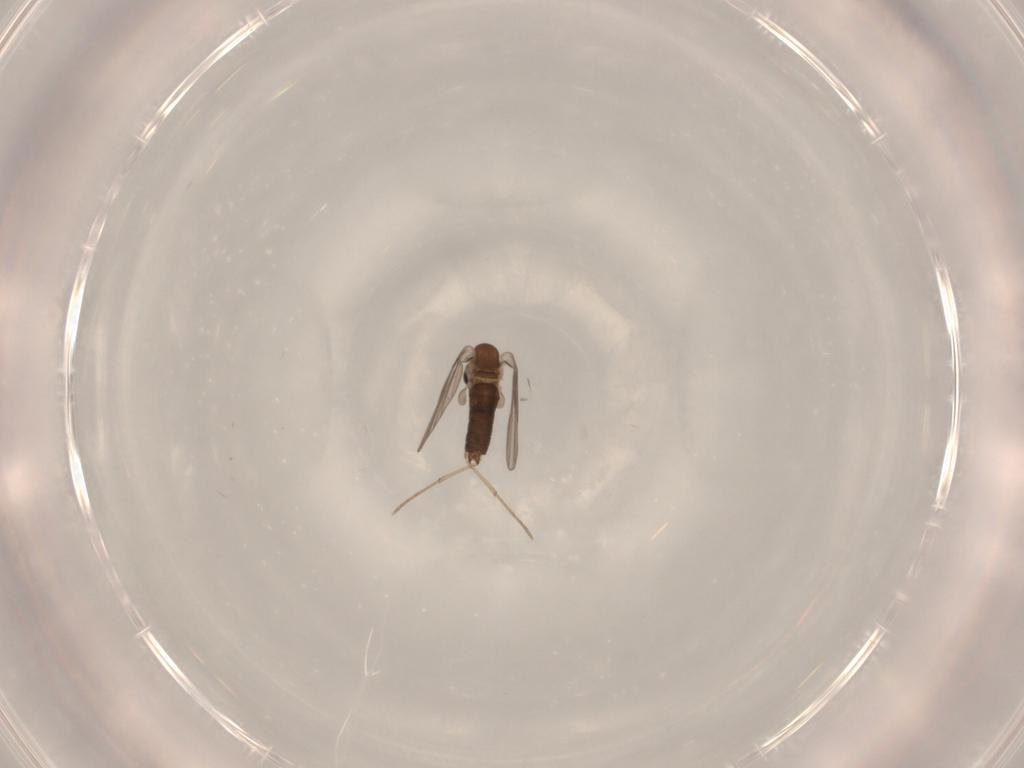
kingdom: Animalia
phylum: Arthropoda
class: Insecta
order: Diptera
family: Sciaridae
